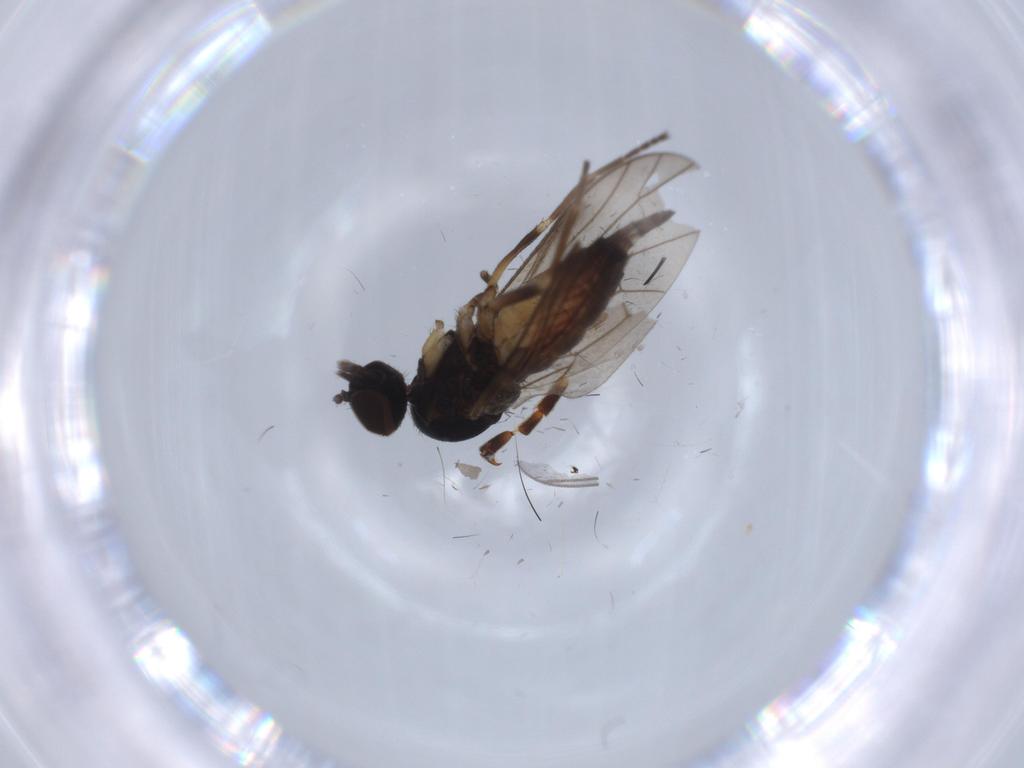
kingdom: Animalia
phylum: Arthropoda
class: Insecta
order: Diptera
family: Iteaphilidae
